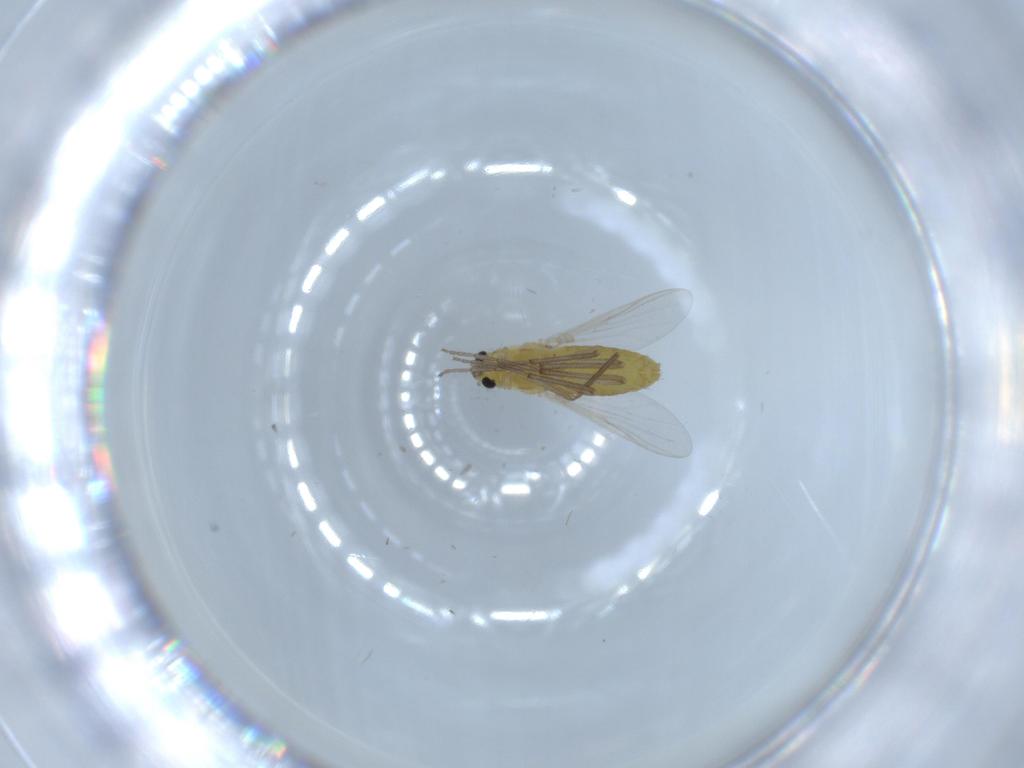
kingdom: Animalia
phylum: Arthropoda
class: Insecta
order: Diptera
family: Chironomidae
